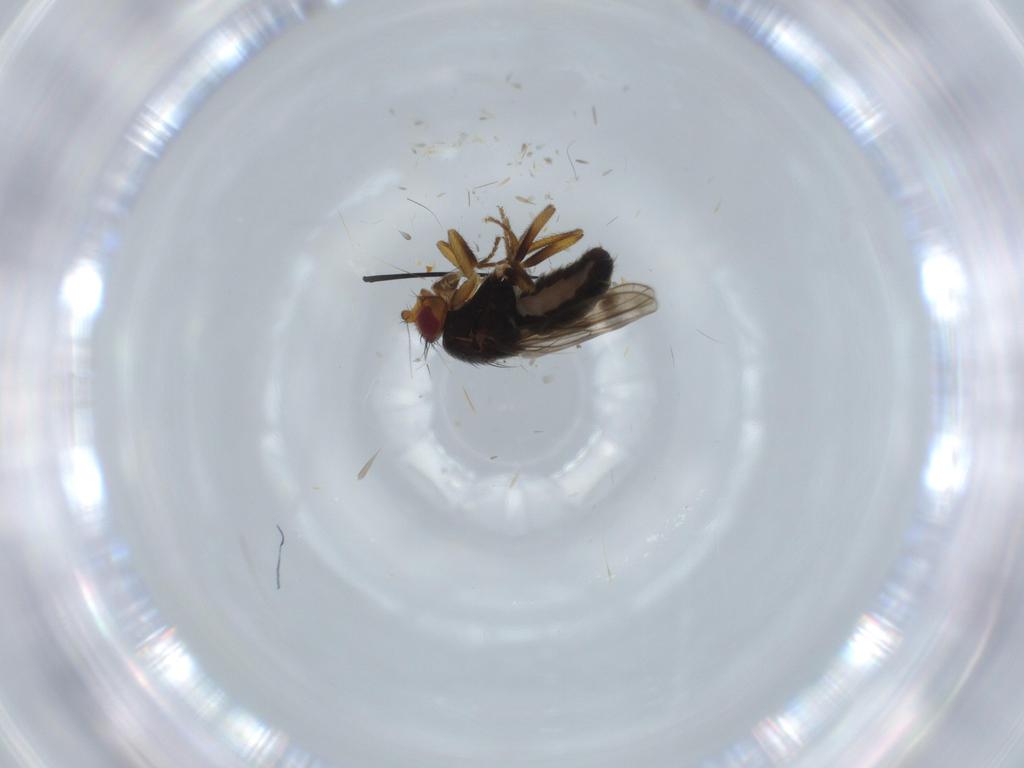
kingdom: Animalia
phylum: Arthropoda
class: Insecta
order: Diptera
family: Sphaeroceridae
